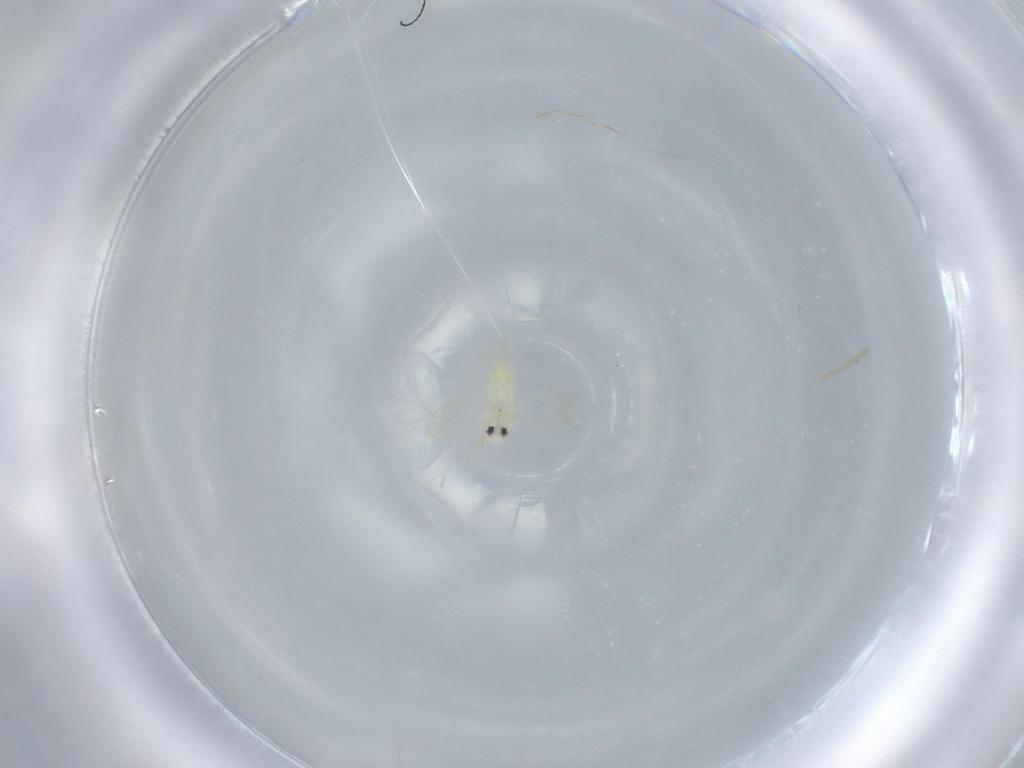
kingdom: Animalia
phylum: Arthropoda
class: Insecta
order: Hemiptera
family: Aleyrodidae
